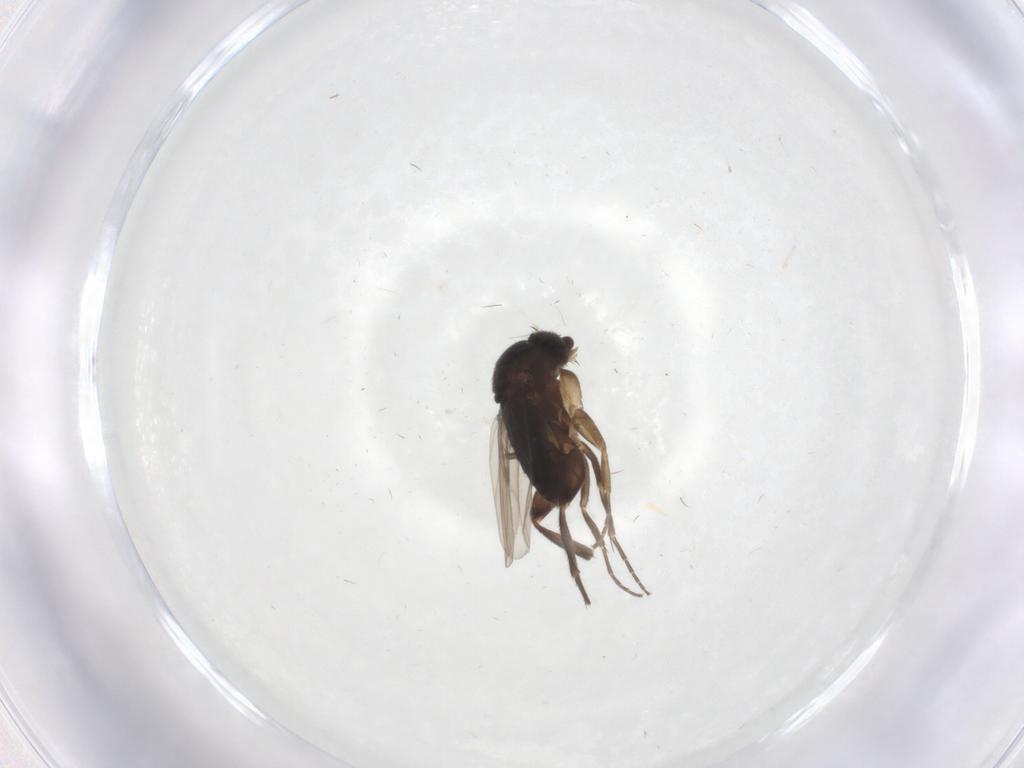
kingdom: Animalia
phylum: Arthropoda
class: Insecta
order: Diptera
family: Phoridae
